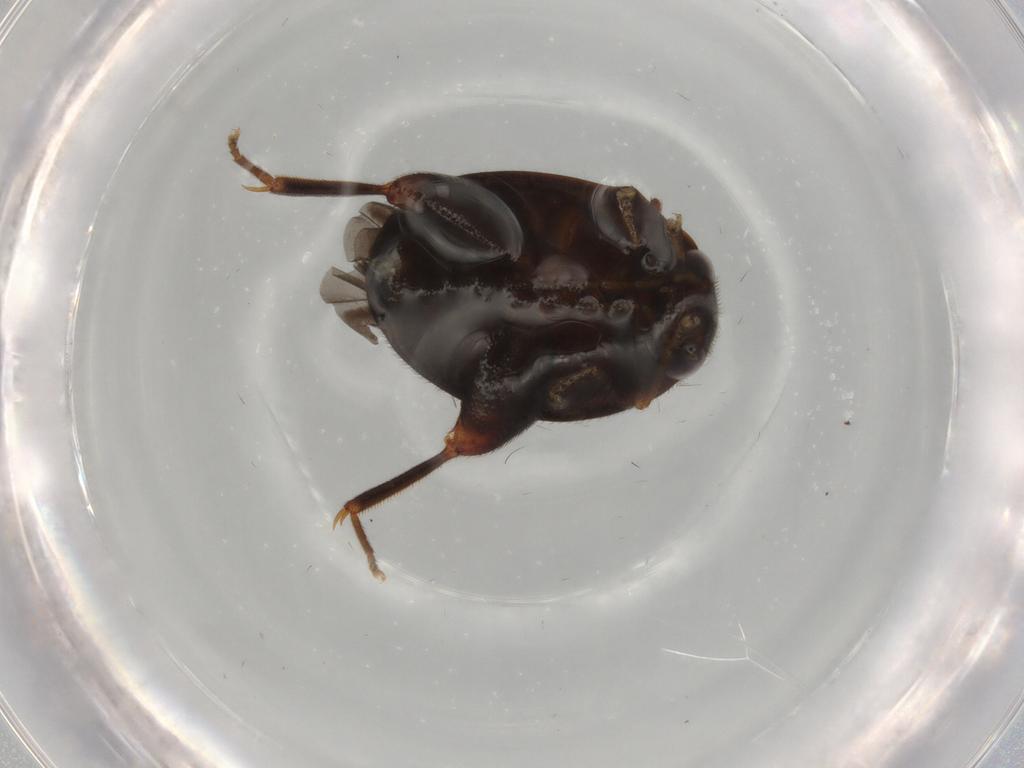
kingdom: Animalia
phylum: Arthropoda
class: Insecta
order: Coleoptera
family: Scirtidae
